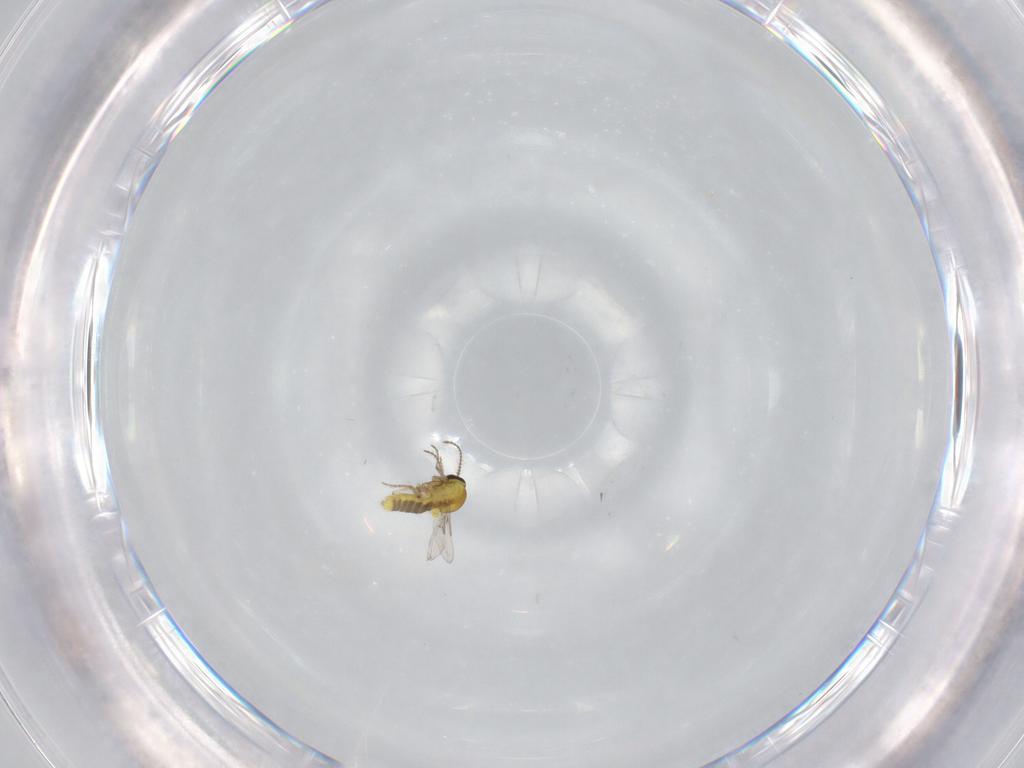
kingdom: Animalia
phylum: Arthropoda
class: Insecta
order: Diptera
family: Ceratopogonidae
